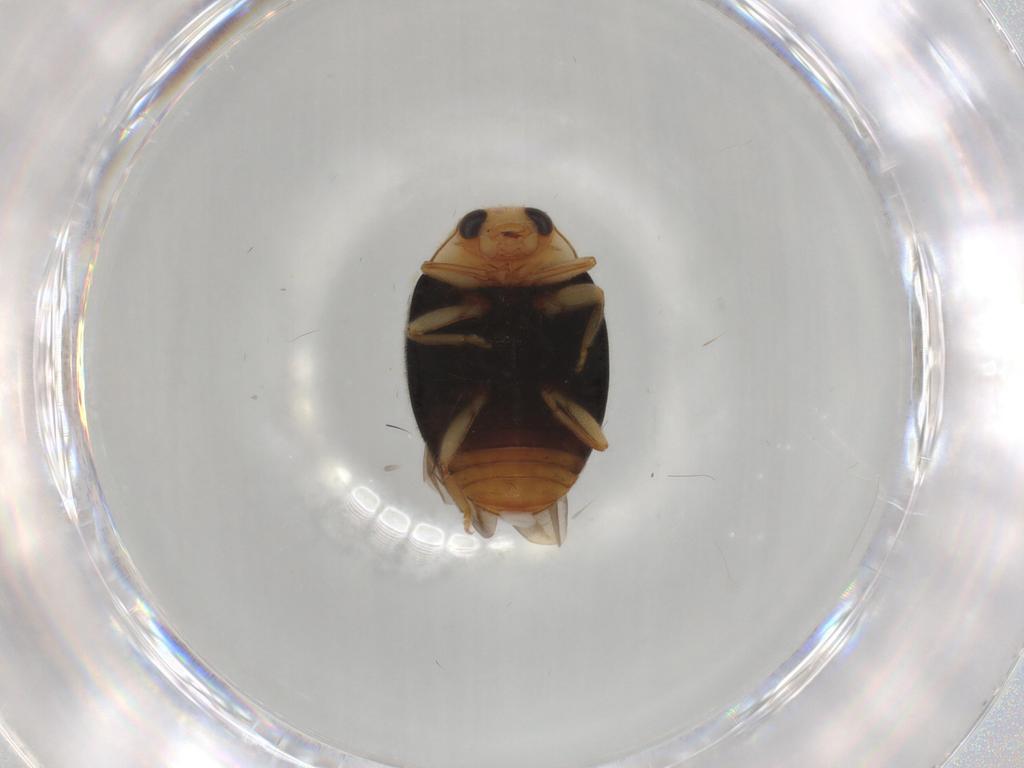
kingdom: Animalia
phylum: Arthropoda
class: Insecta
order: Coleoptera
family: Coccinellidae
